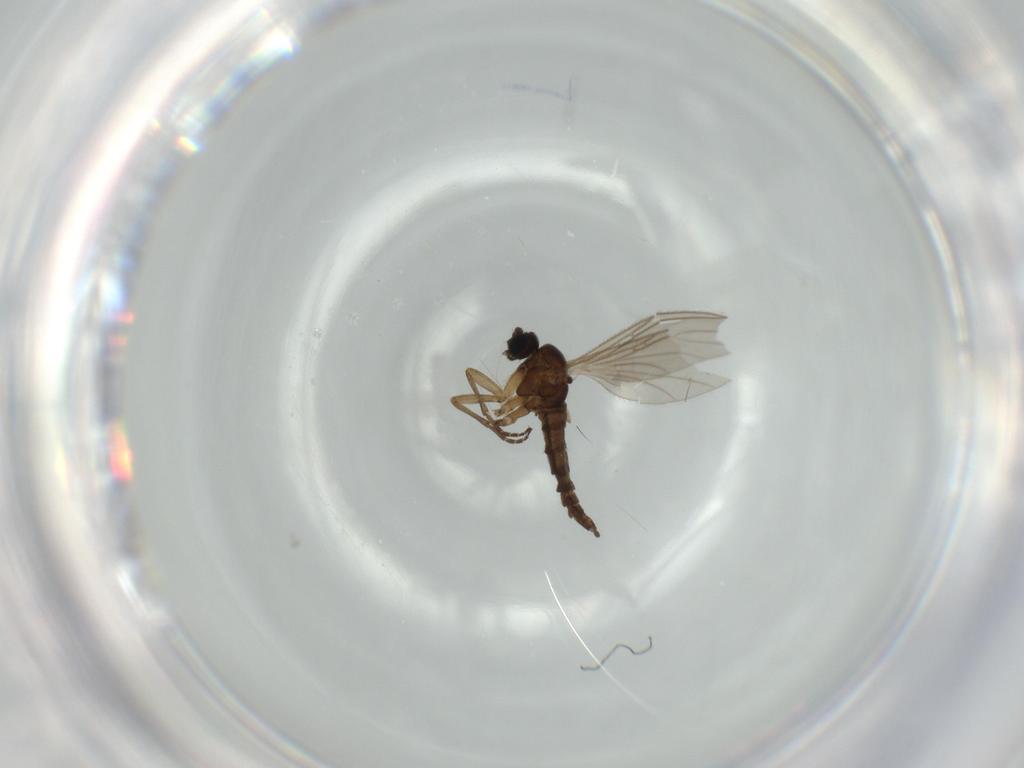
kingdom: Animalia
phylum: Arthropoda
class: Insecta
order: Diptera
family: Sciaridae
